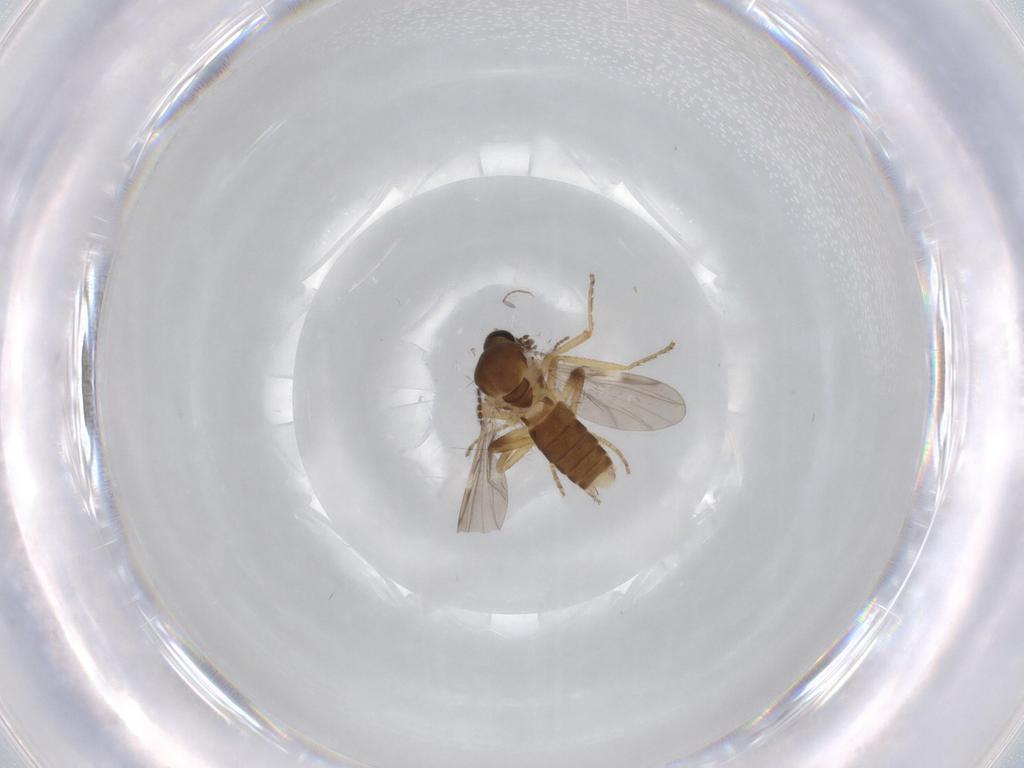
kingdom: Animalia
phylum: Arthropoda
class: Insecta
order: Diptera
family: Ceratopogonidae
